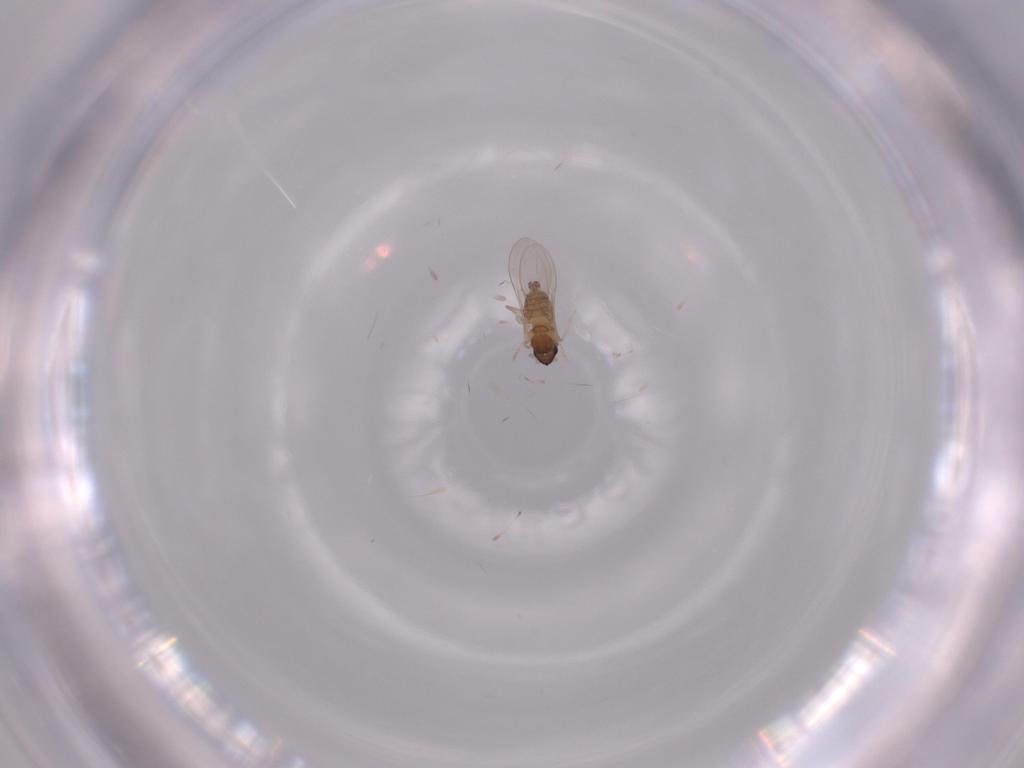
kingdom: Animalia
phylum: Arthropoda
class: Insecta
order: Diptera
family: Cecidomyiidae
